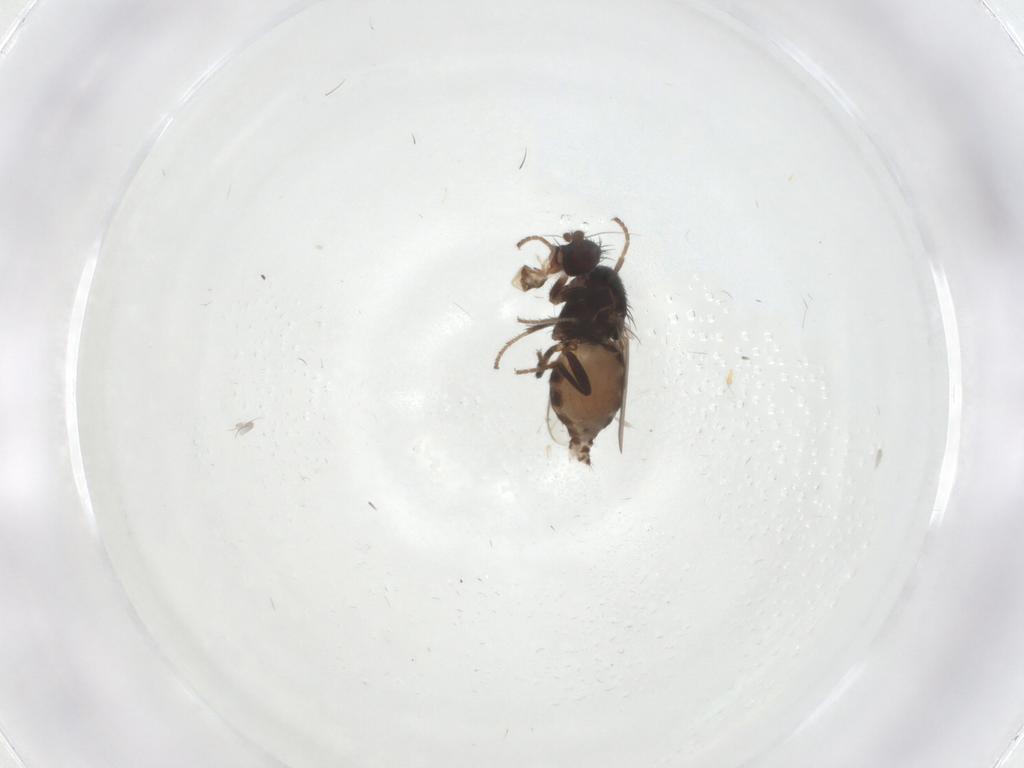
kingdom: Animalia
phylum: Arthropoda
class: Insecta
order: Diptera
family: Sphaeroceridae
